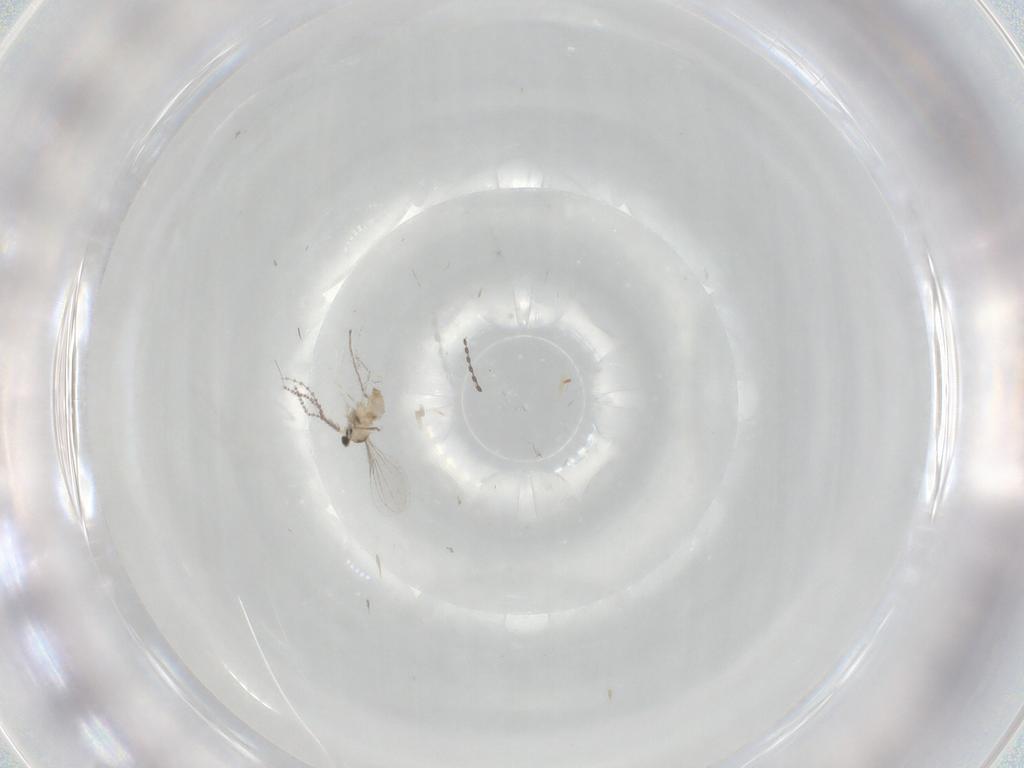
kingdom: Animalia
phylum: Arthropoda
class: Insecta
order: Diptera
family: Cecidomyiidae
